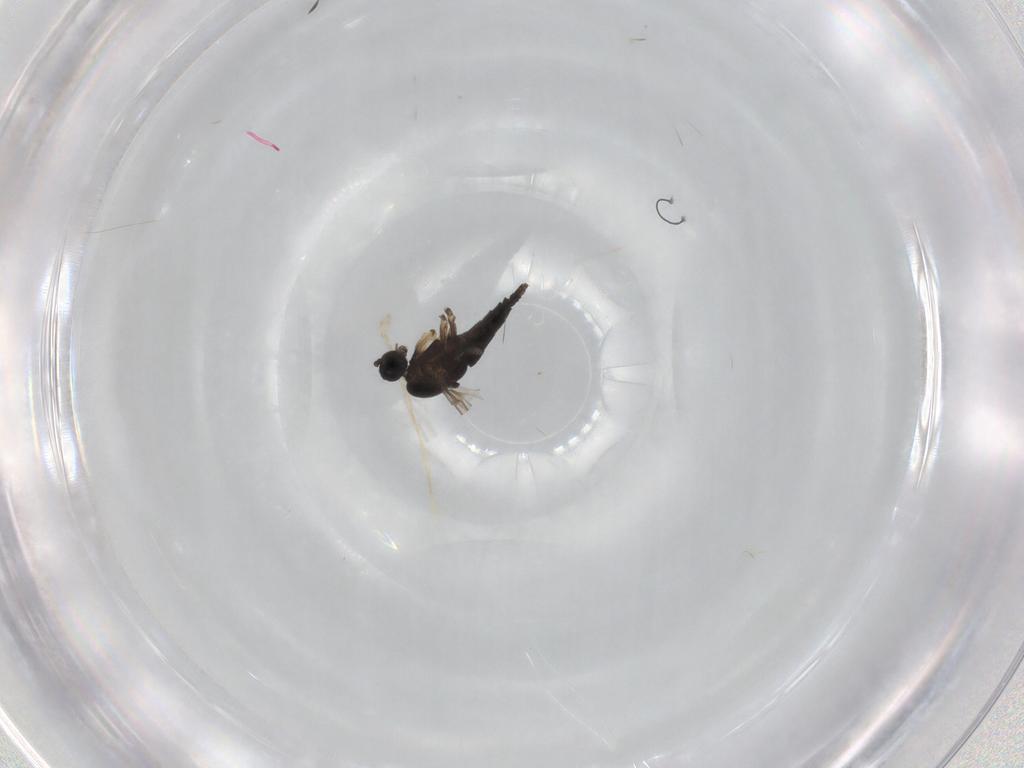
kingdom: Animalia
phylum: Arthropoda
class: Insecta
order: Diptera
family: Sciaridae
